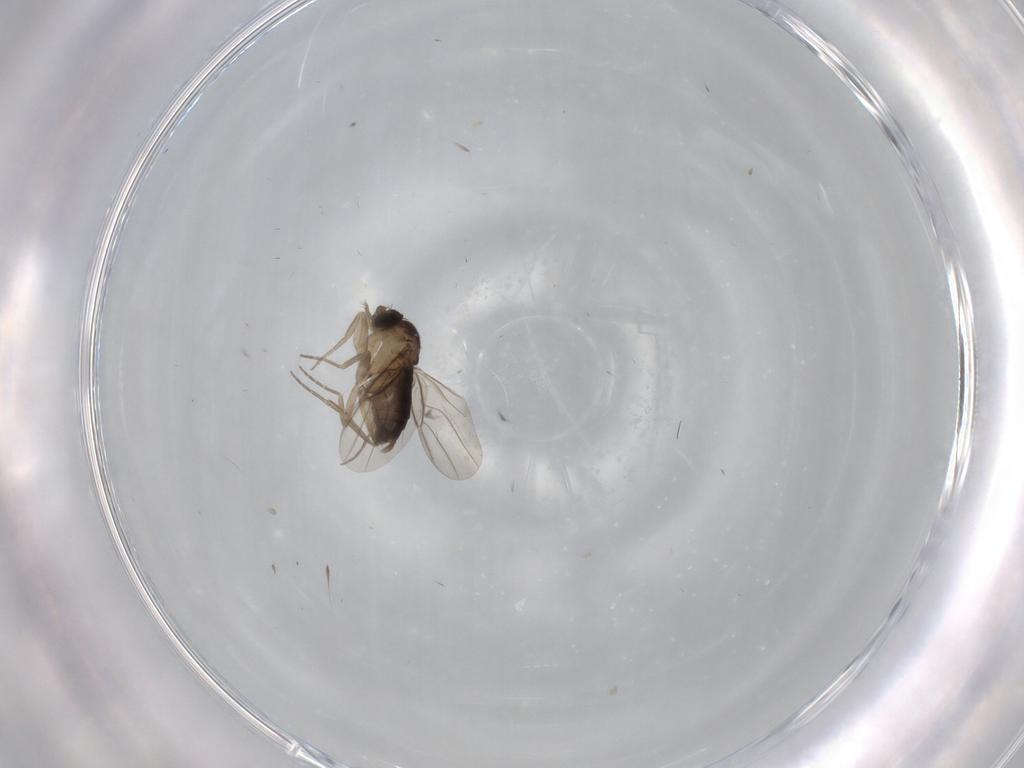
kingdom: Animalia
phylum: Arthropoda
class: Insecta
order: Diptera
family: Phoridae
